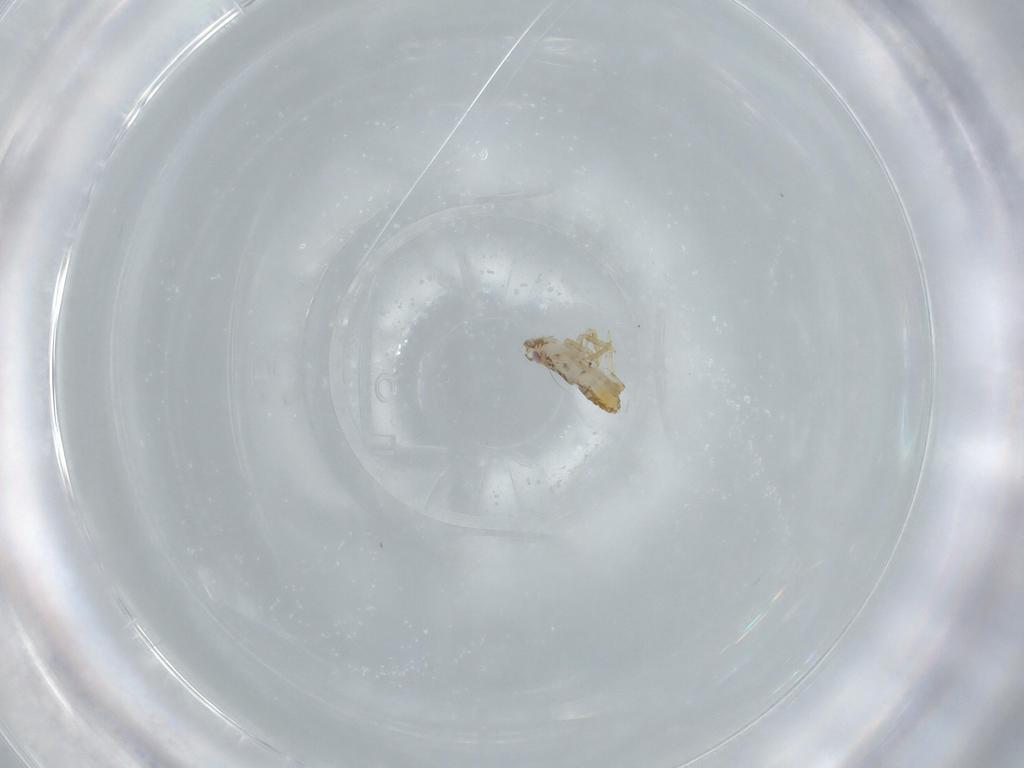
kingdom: Animalia
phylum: Arthropoda
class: Insecta
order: Hemiptera
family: Delphacidae
